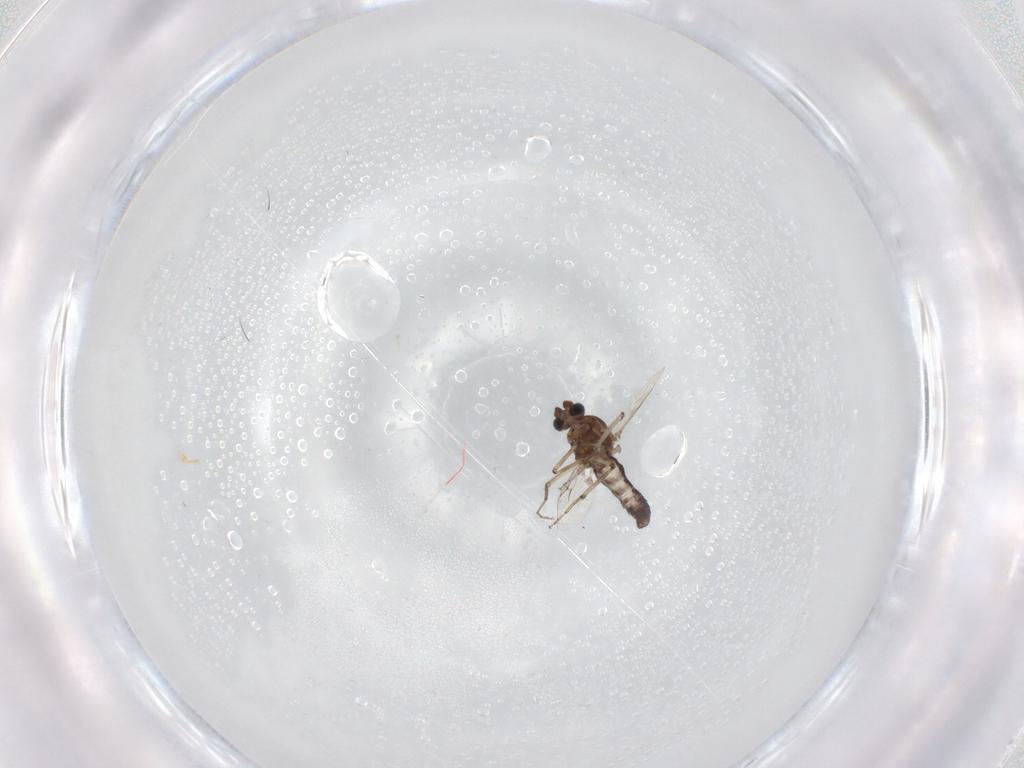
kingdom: Animalia
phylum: Arthropoda
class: Insecta
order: Diptera
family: Ceratopogonidae
